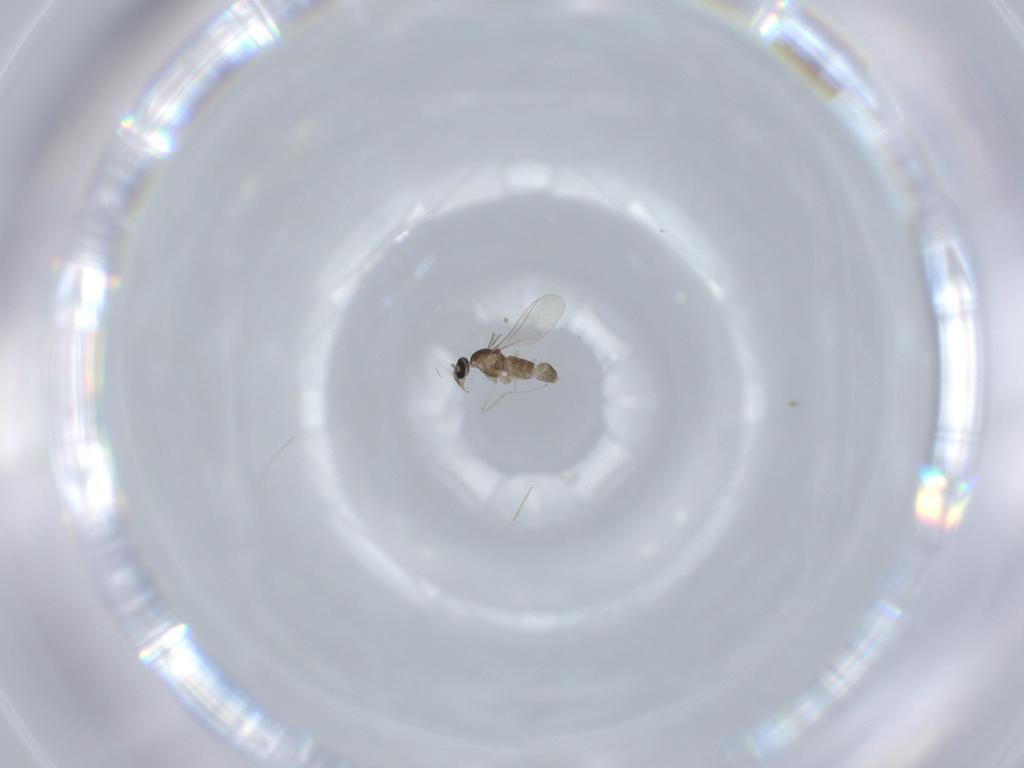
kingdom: Animalia
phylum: Arthropoda
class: Insecta
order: Diptera
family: Cecidomyiidae
